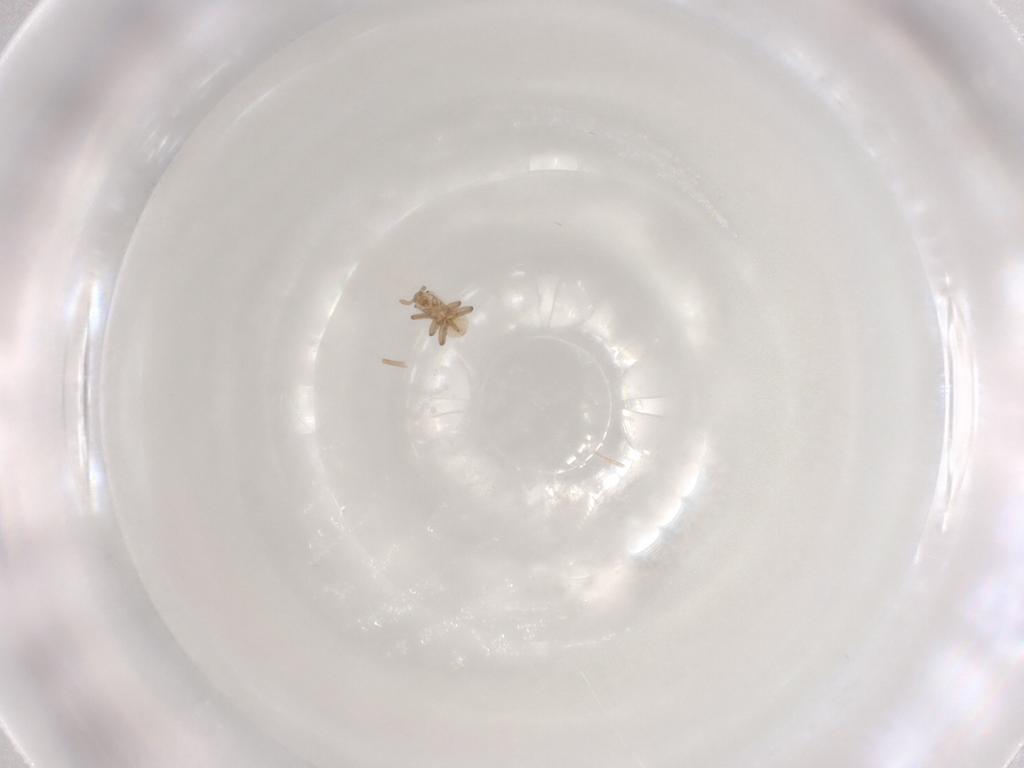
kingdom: Animalia
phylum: Arthropoda
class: Insecta
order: Hemiptera
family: Aphididae
